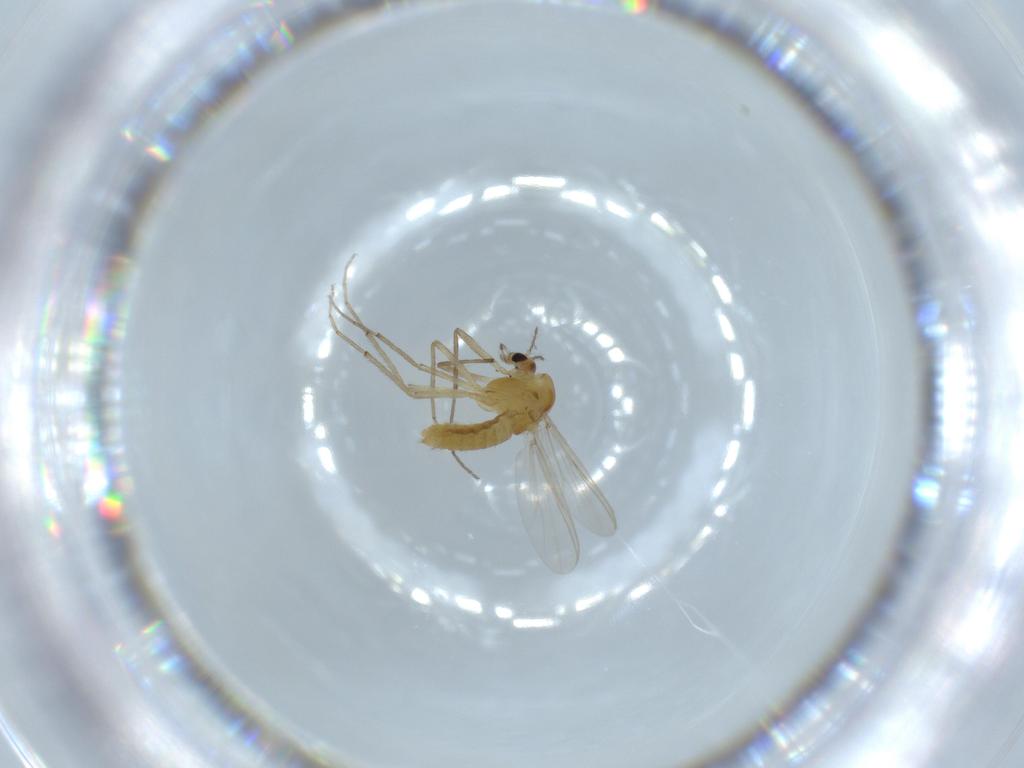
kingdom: Animalia
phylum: Arthropoda
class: Insecta
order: Diptera
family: Chironomidae
